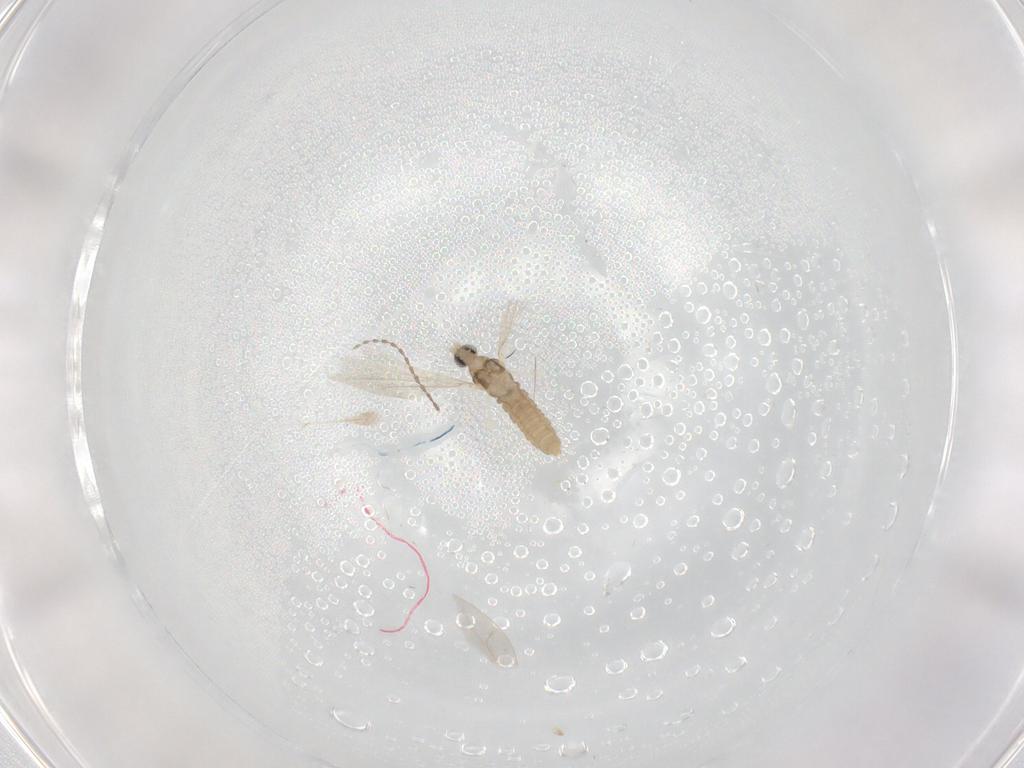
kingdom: Animalia
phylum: Arthropoda
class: Insecta
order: Diptera
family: Cecidomyiidae
